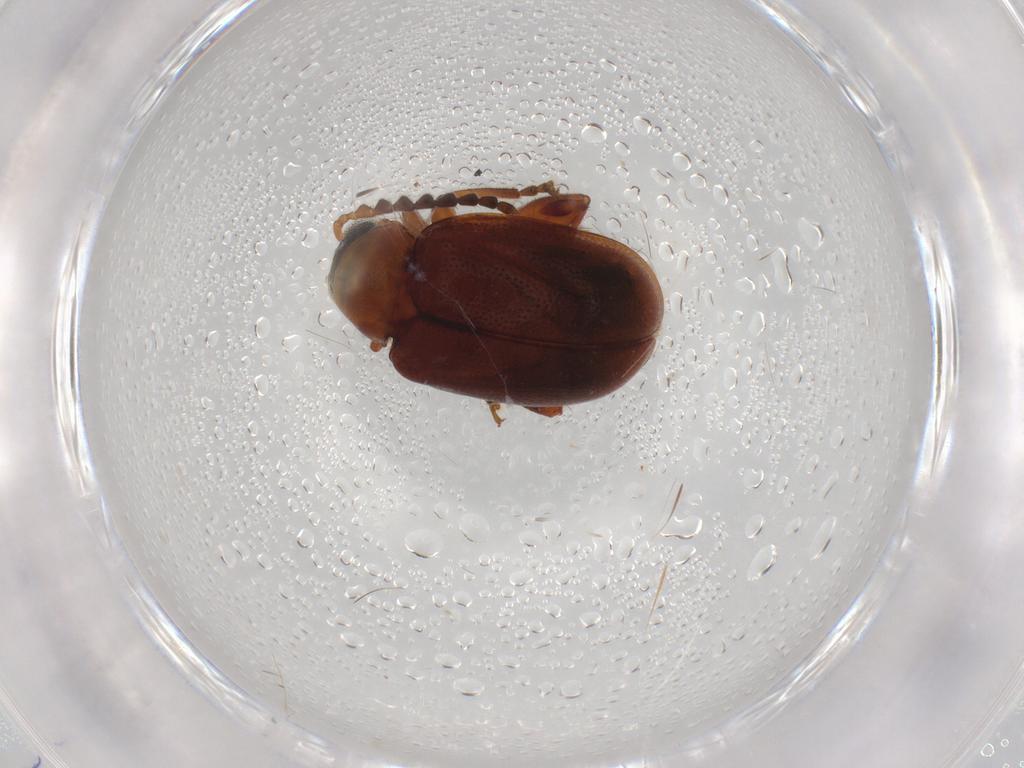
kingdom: Animalia
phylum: Arthropoda
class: Insecta
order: Coleoptera
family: Chrysomelidae
